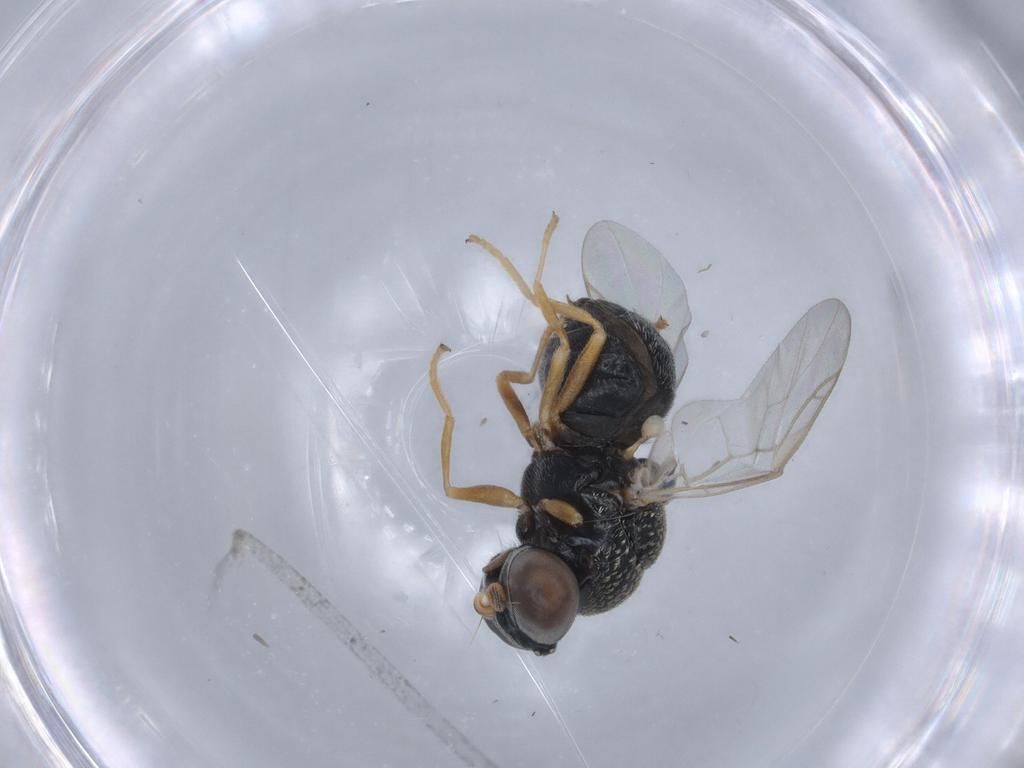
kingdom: Animalia
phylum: Arthropoda
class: Insecta
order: Diptera
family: Stratiomyidae
